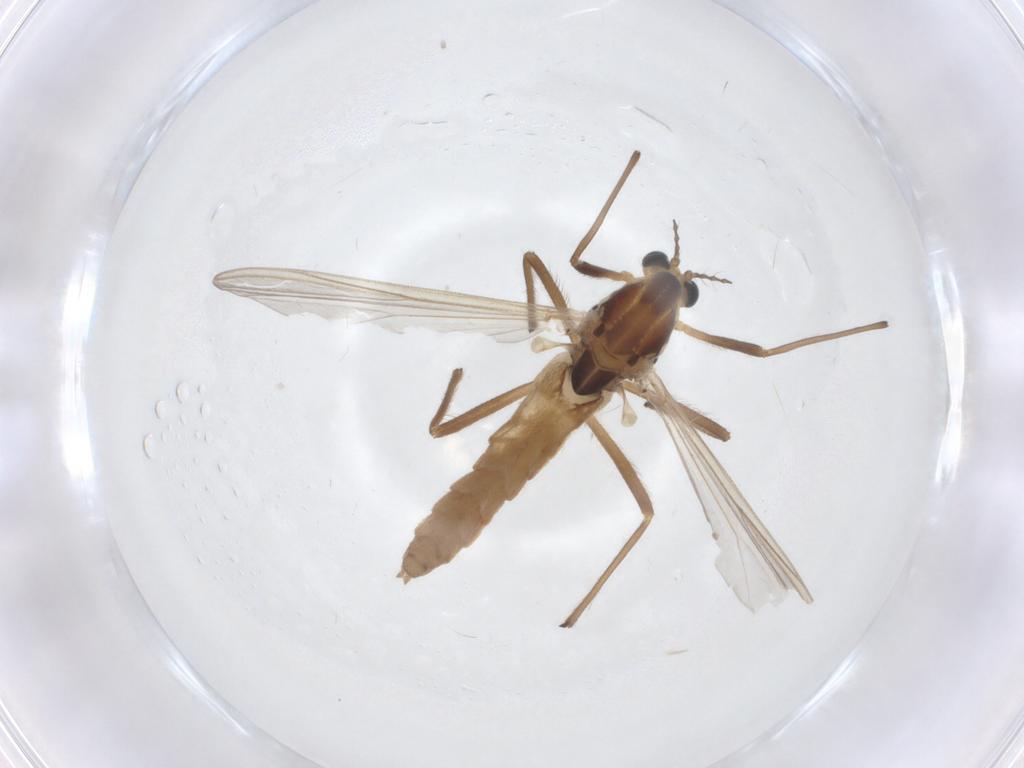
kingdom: Animalia
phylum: Arthropoda
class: Insecta
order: Diptera
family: Chironomidae
